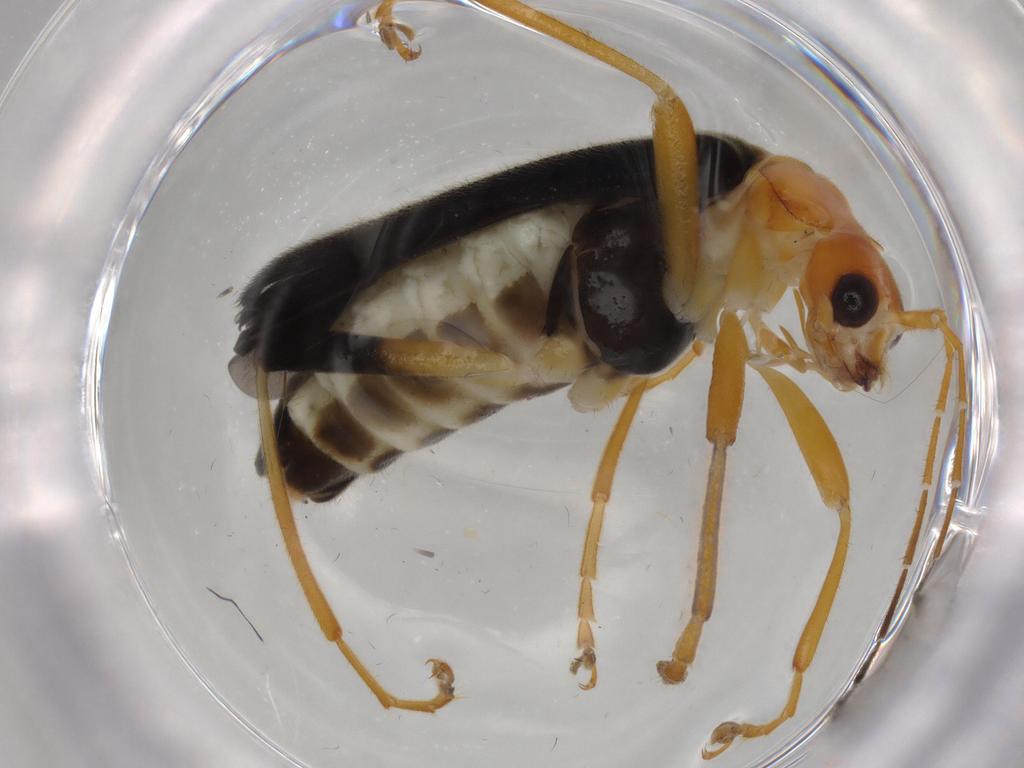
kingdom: Animalia
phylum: Arthropoda
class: Insecta
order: Coleoptera
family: Cantharidae
